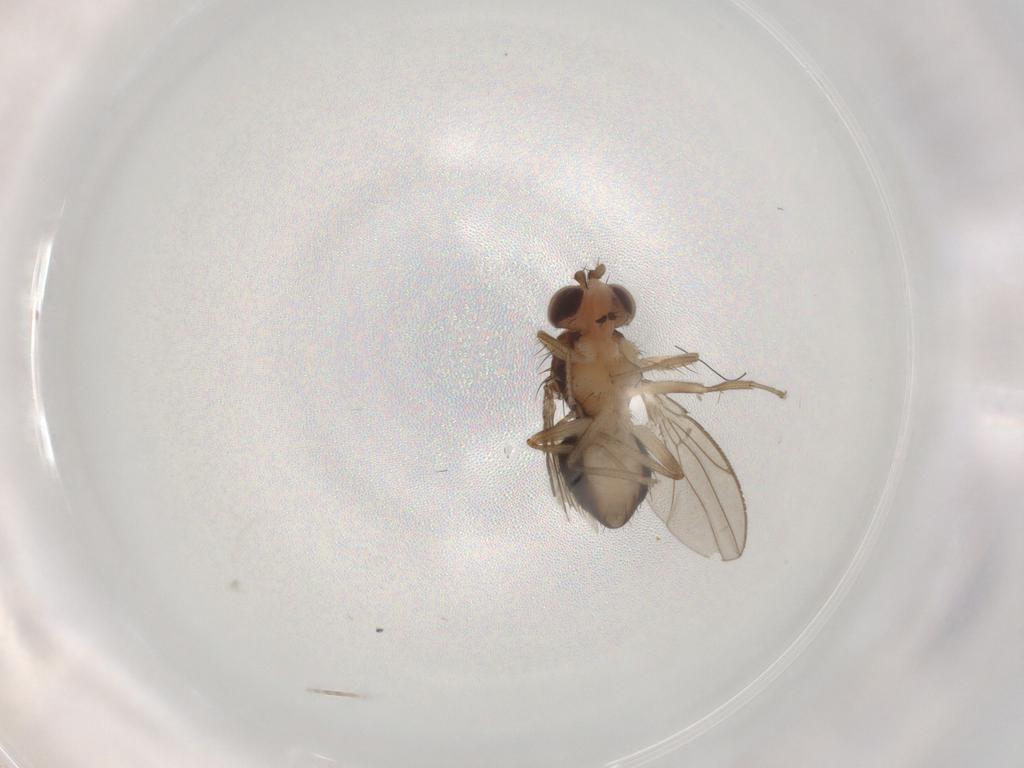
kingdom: Animalia
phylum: Arthropoda
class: Insecta
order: Diptera
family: Drosophilidae
